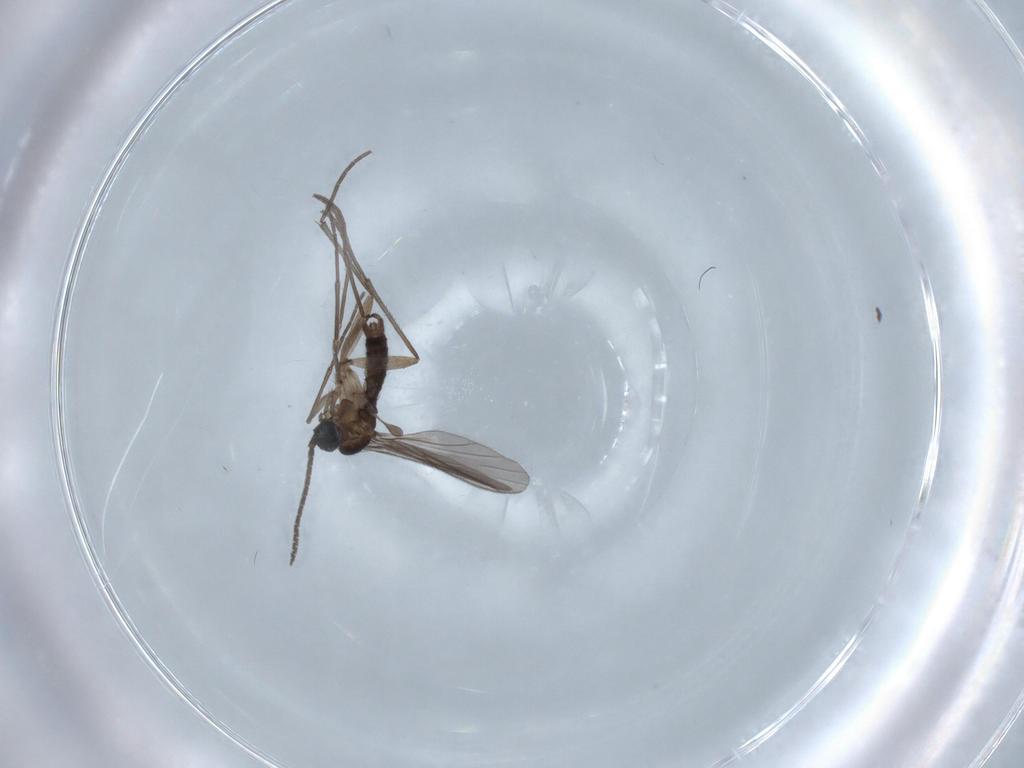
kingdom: Animalia
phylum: Arthropoda
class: Insecta
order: Diptera
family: Sciaridae
